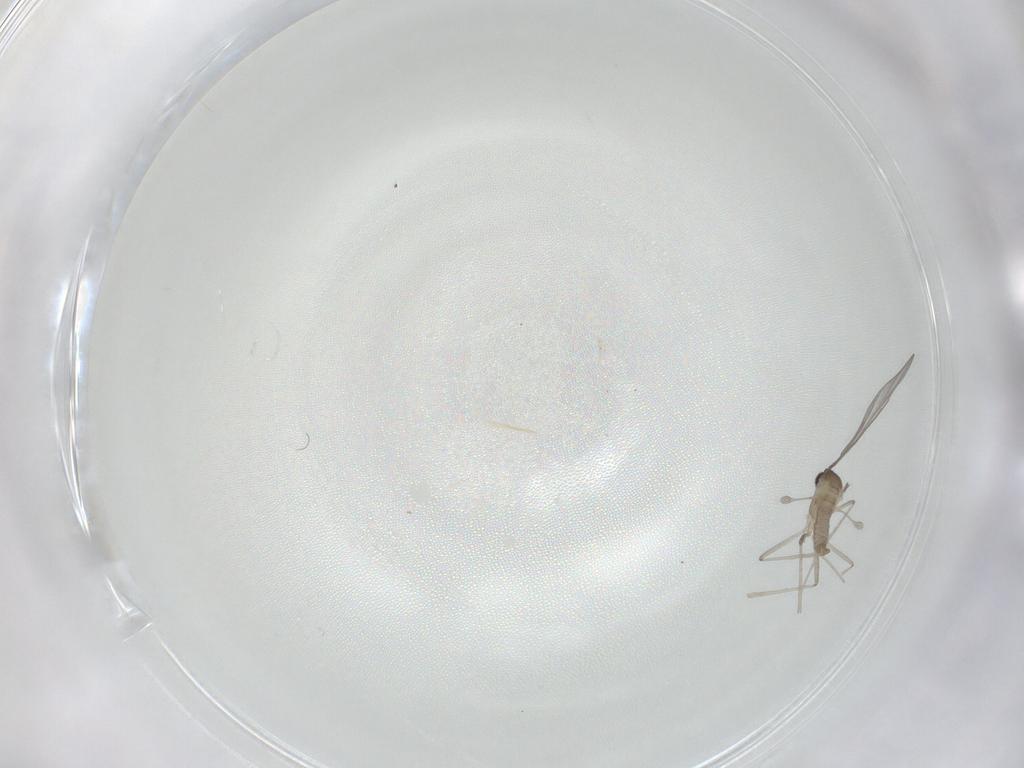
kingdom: Animalia
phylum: Arthropoda
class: Insecta
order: Diptera
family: Cecidomyiidae
